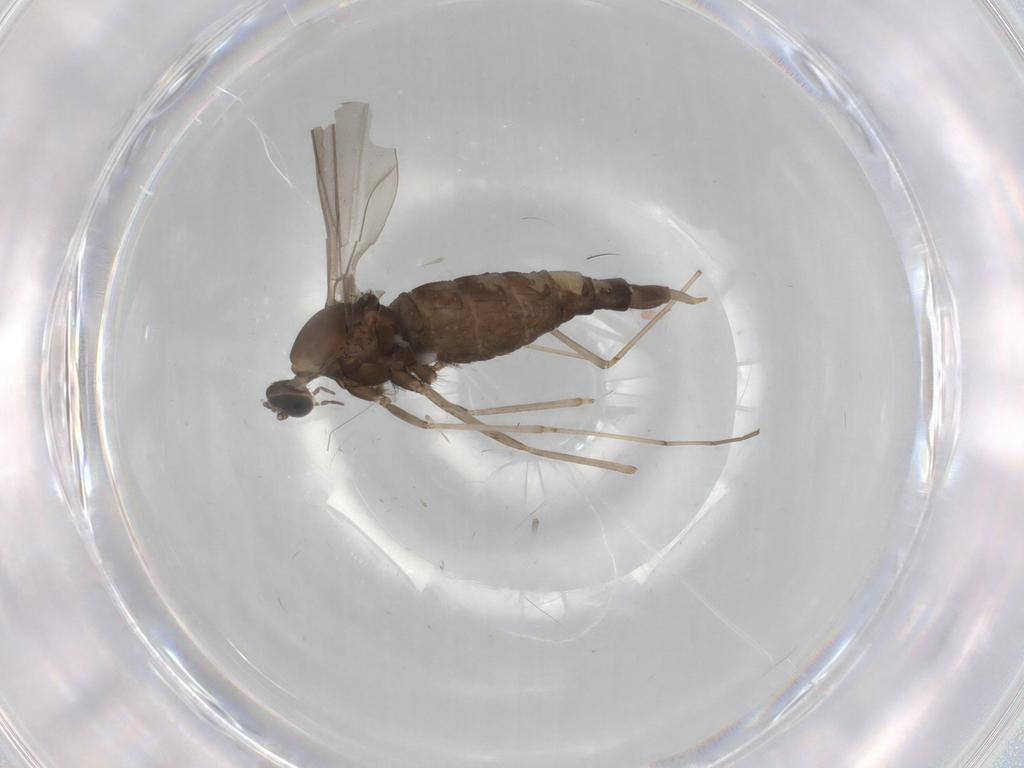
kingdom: Animalia
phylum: Arthropoda
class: Insecta
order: Diptera
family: Cecidomyiidae
